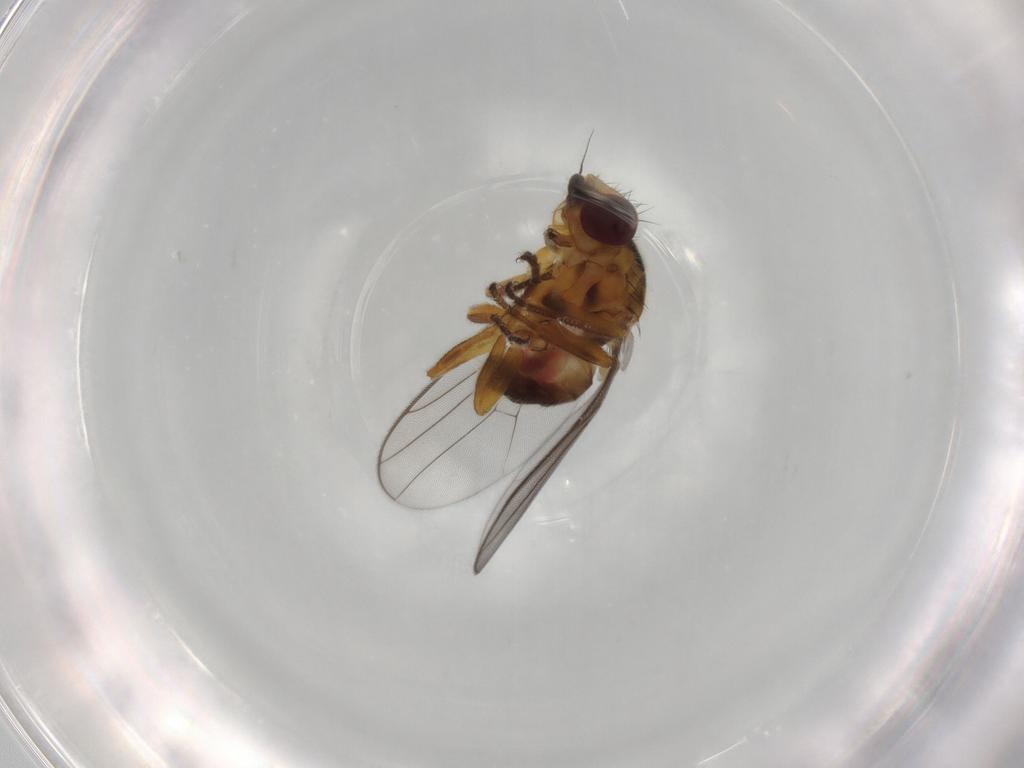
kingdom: Animalia
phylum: Arthropoda
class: Insecta
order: Diptera
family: Chloropidae
